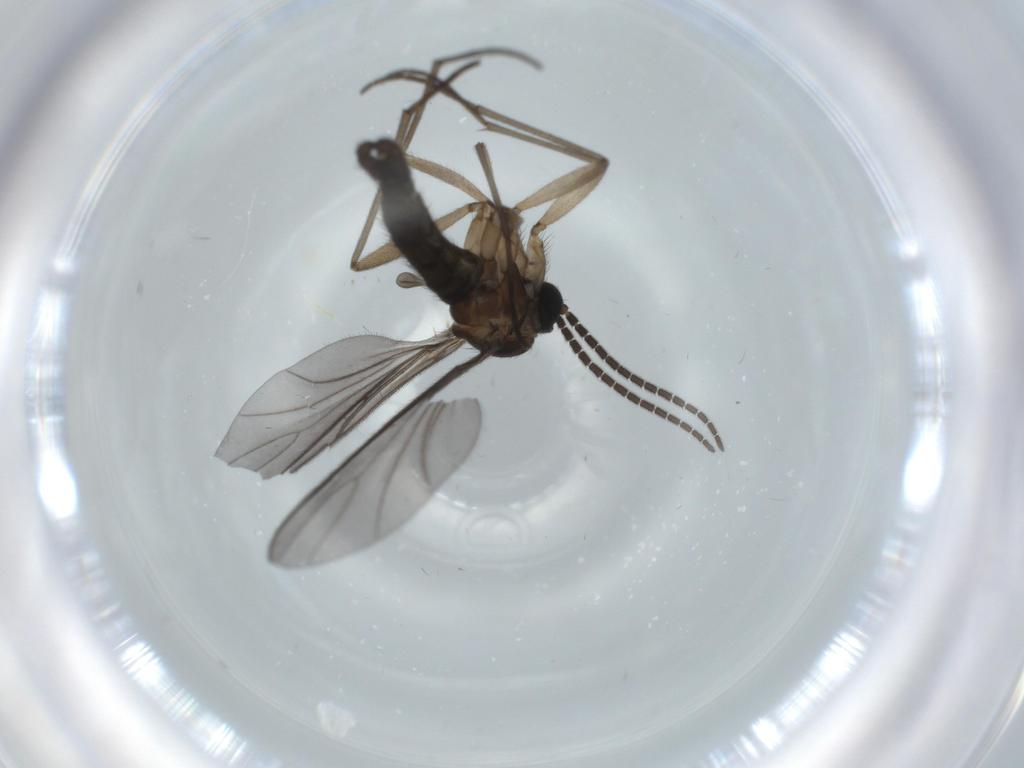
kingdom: Animalia
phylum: Arthropoda
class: Insecta
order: Diptera
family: Sciaridae
